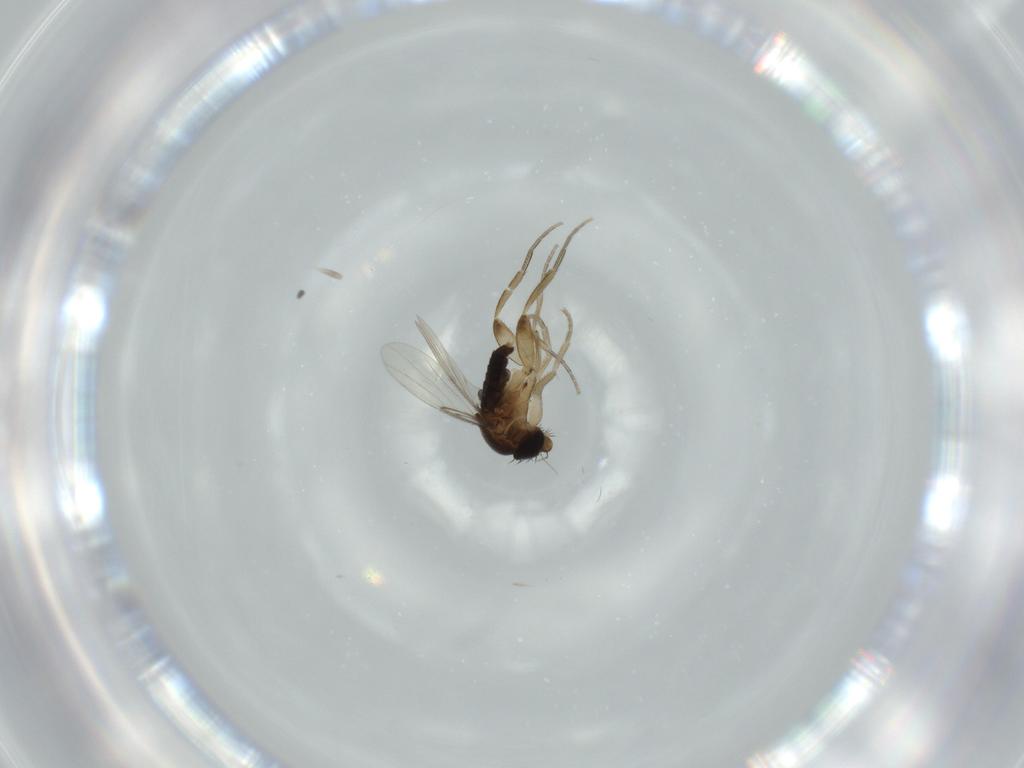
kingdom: Animalia
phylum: Arthropoda
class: Insecta
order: Diptera
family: Phoridae
